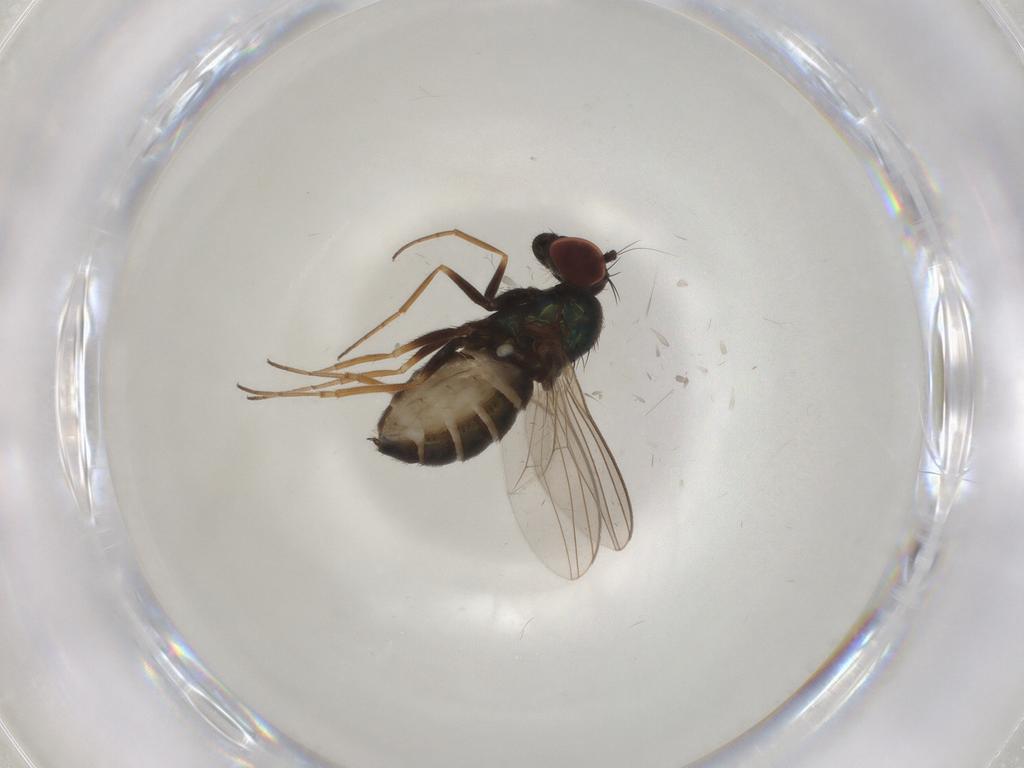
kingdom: Animalia
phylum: Arthropoda
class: Insecta
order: Diptera
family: Dolichopodidae
